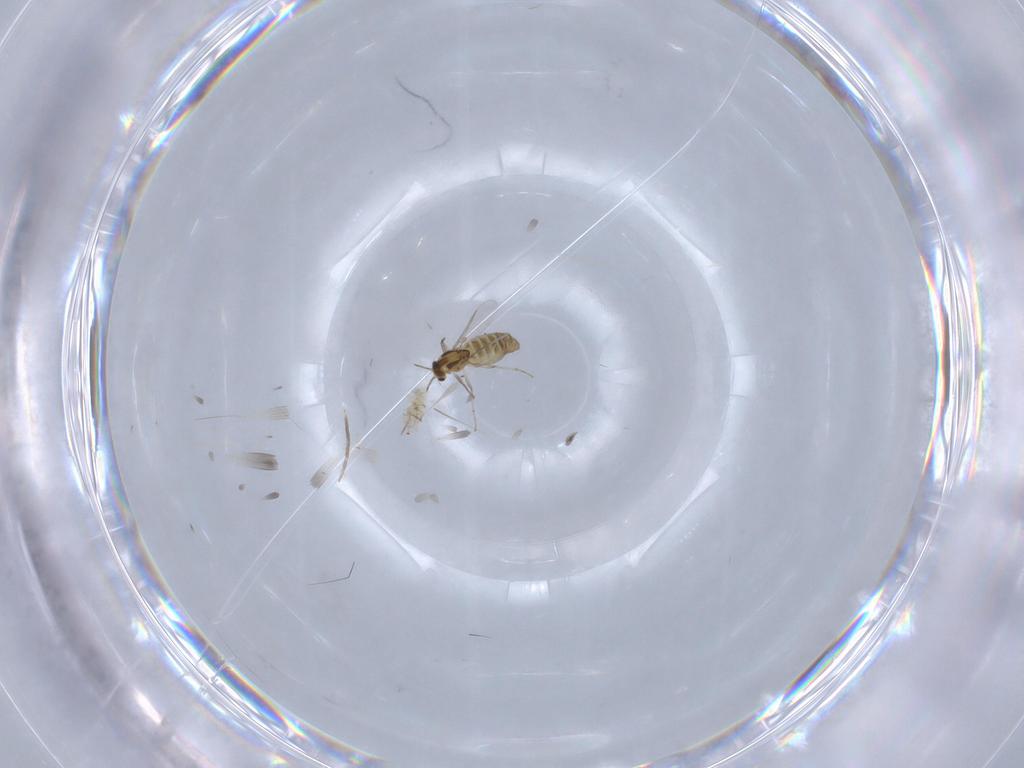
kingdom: Animalia
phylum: Arthropoda
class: Insecta
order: Diptera
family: Chironomidae
